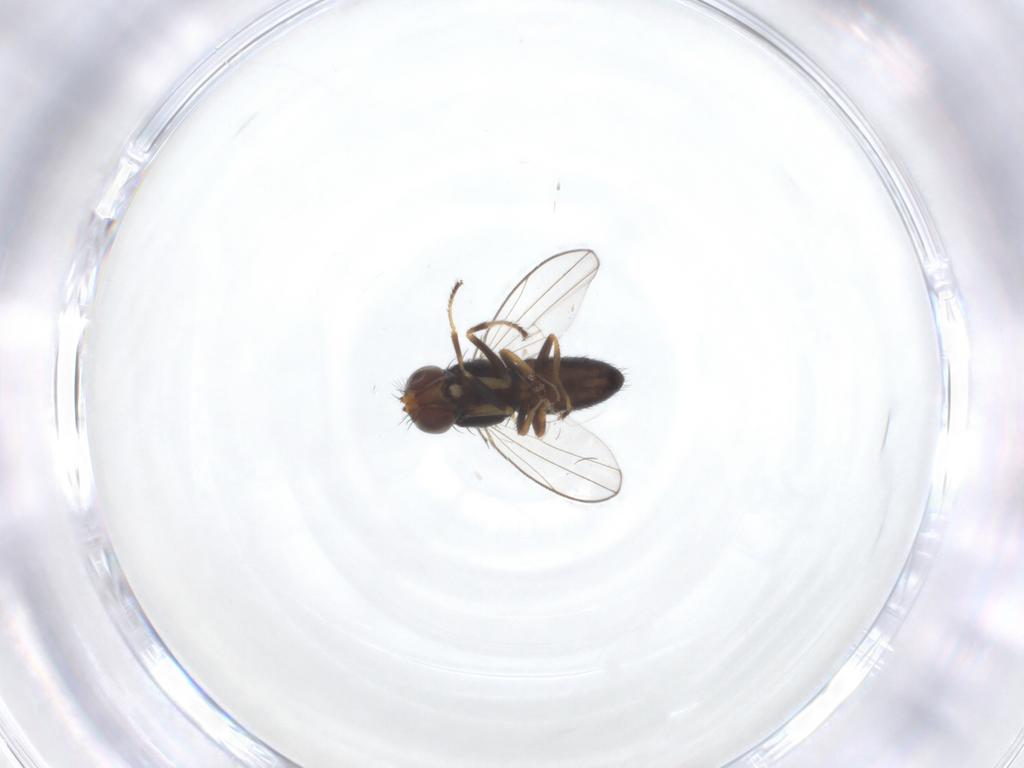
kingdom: Animalia
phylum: Arthropoda
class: Insecta
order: Diptera
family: Ephydridae
